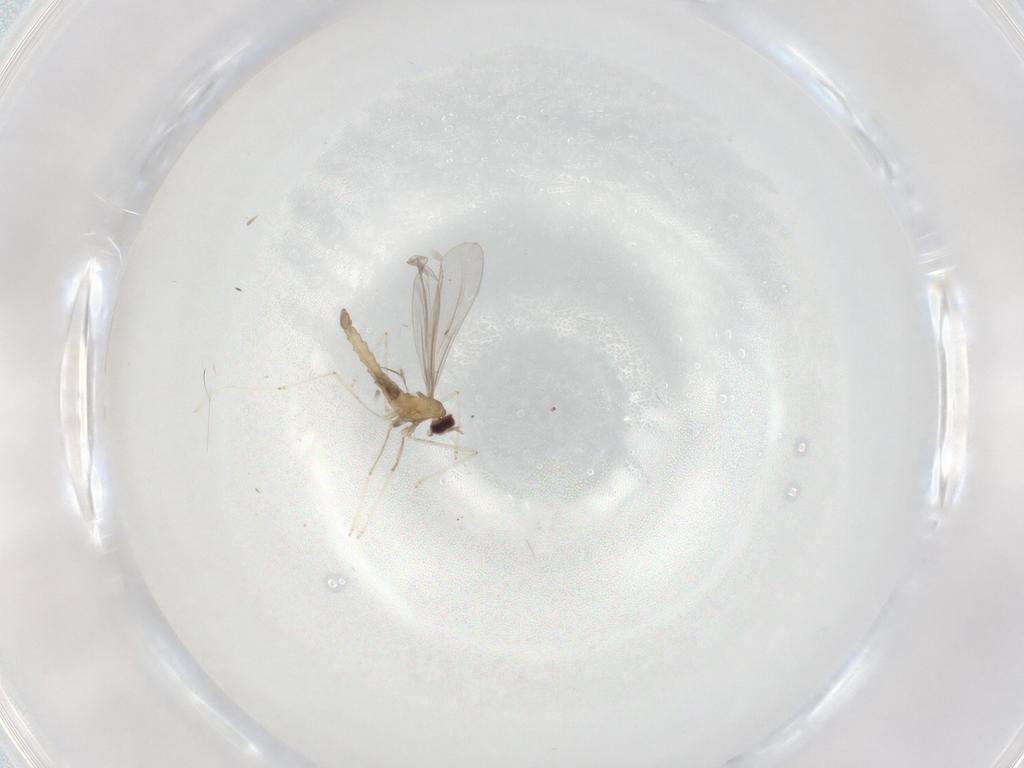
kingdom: Animalia
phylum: Arthropoda
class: Insecta
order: Diptera
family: Cecidomyiidae
